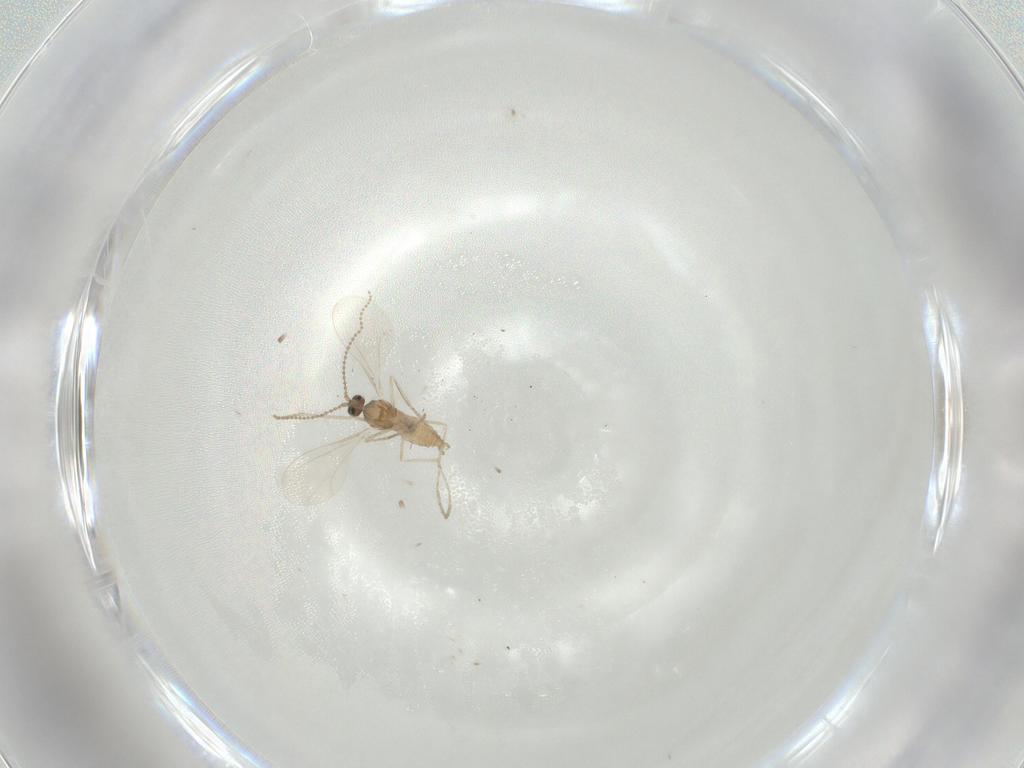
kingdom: Animalia
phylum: Arthropoda
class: Insecta
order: Diptera
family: Cecidomyiidae
